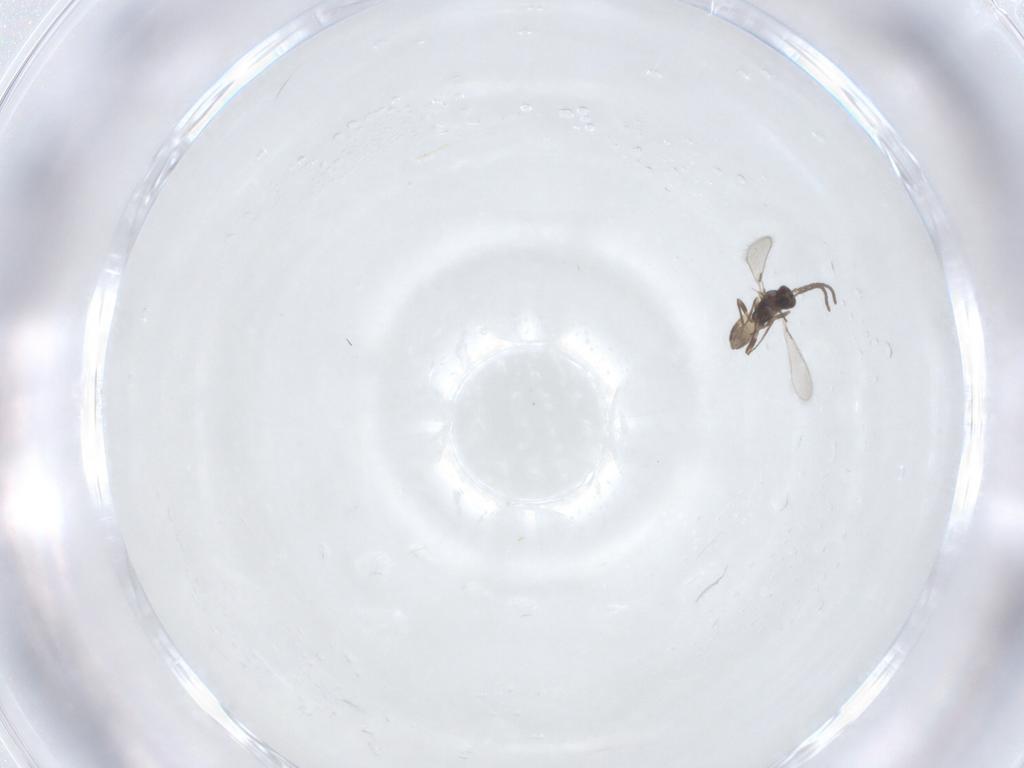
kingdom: Animalia
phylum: Arthropoda
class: Insecta
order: Hymenoptera
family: Mymaridae
